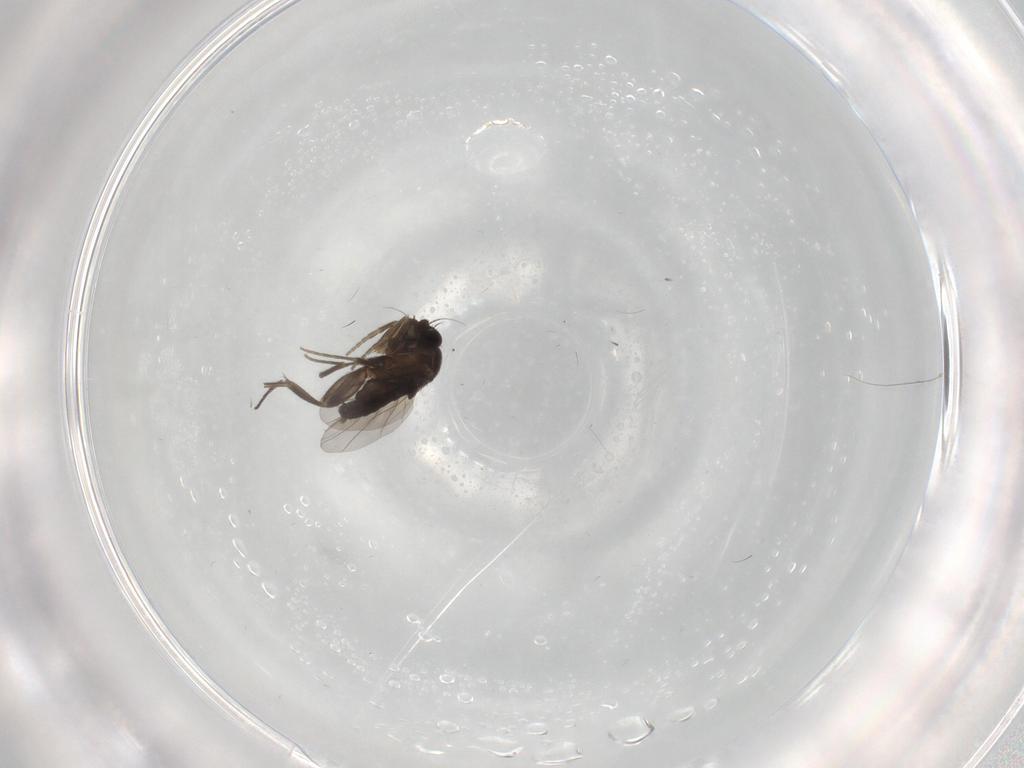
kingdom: Animalia
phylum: Arthropoda
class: Insecta
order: Diptera
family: Phoridae
